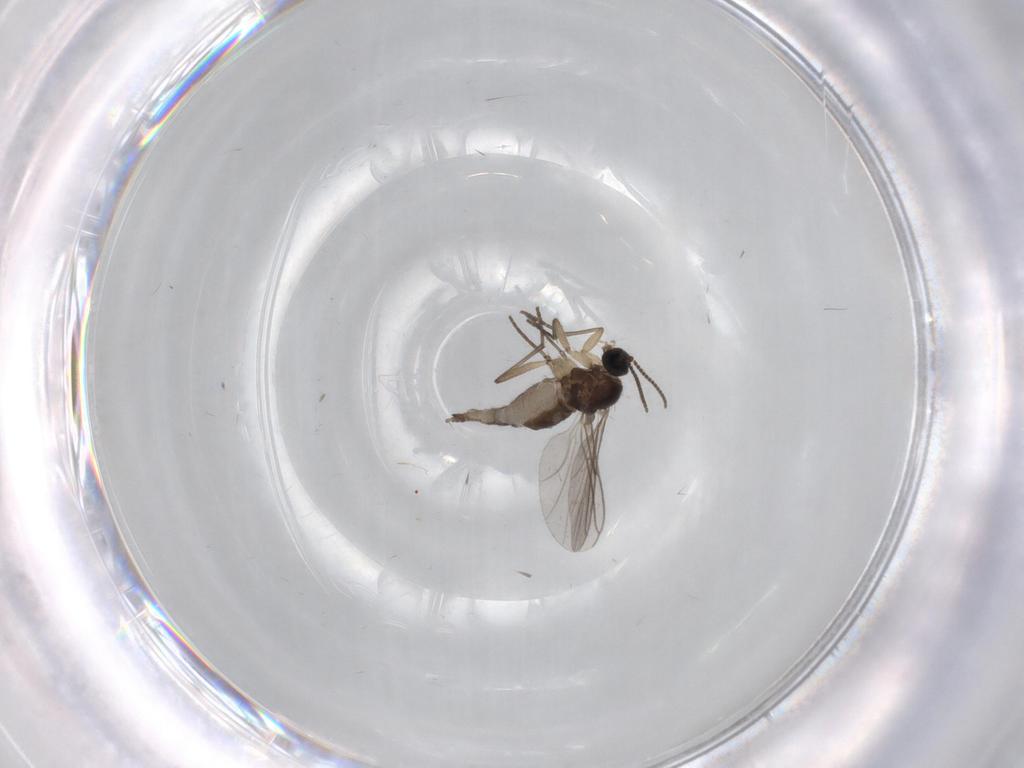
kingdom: Animalia
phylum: Arthropoda
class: Insecta
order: Diptera
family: Sciaridae
